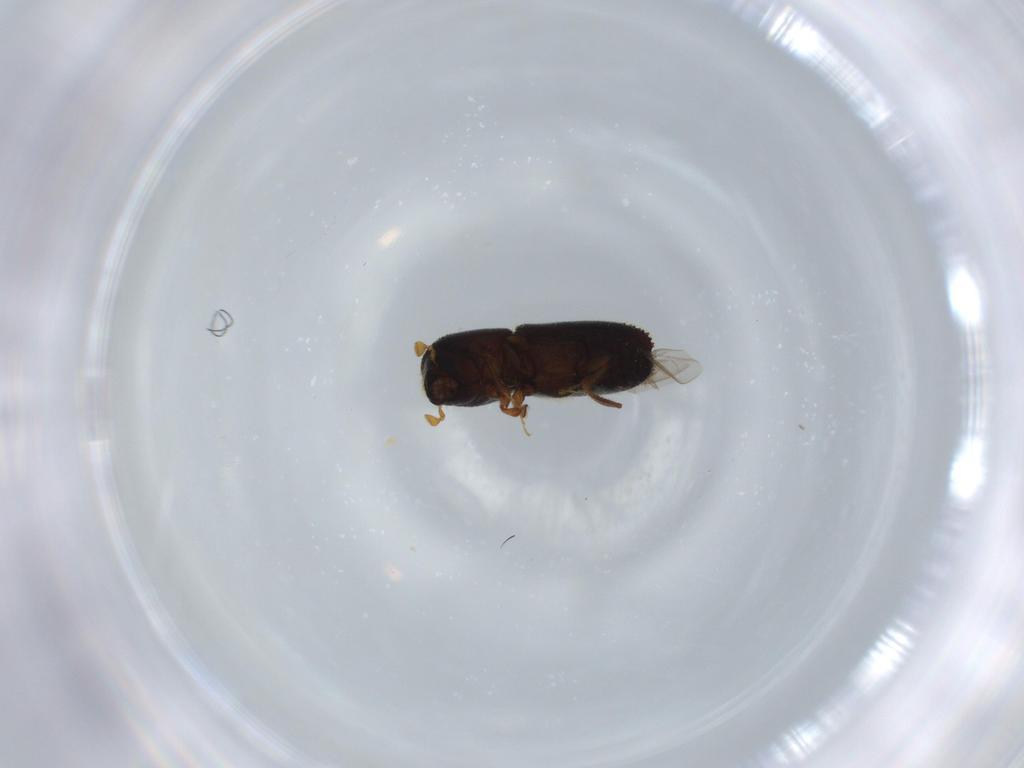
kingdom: Animalia
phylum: Arthropoda
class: Insecta
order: Coleoptera
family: Curculionidae
